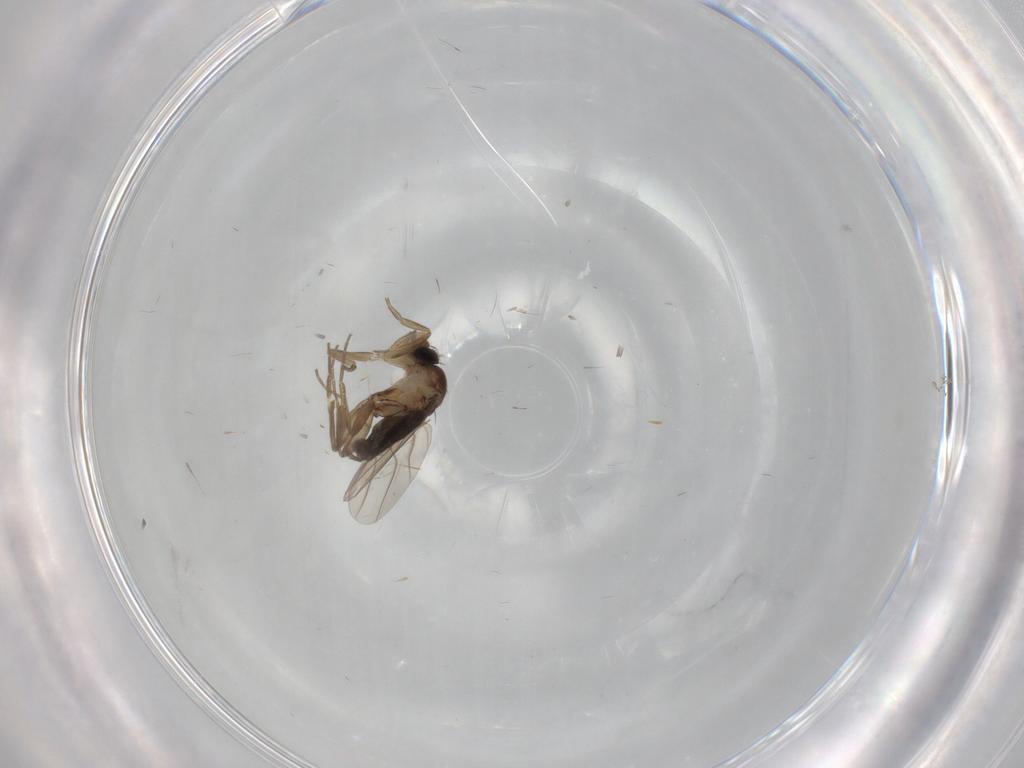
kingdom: Animalia
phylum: Arthropoda
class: Insecta
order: Diptera
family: Phoridae
